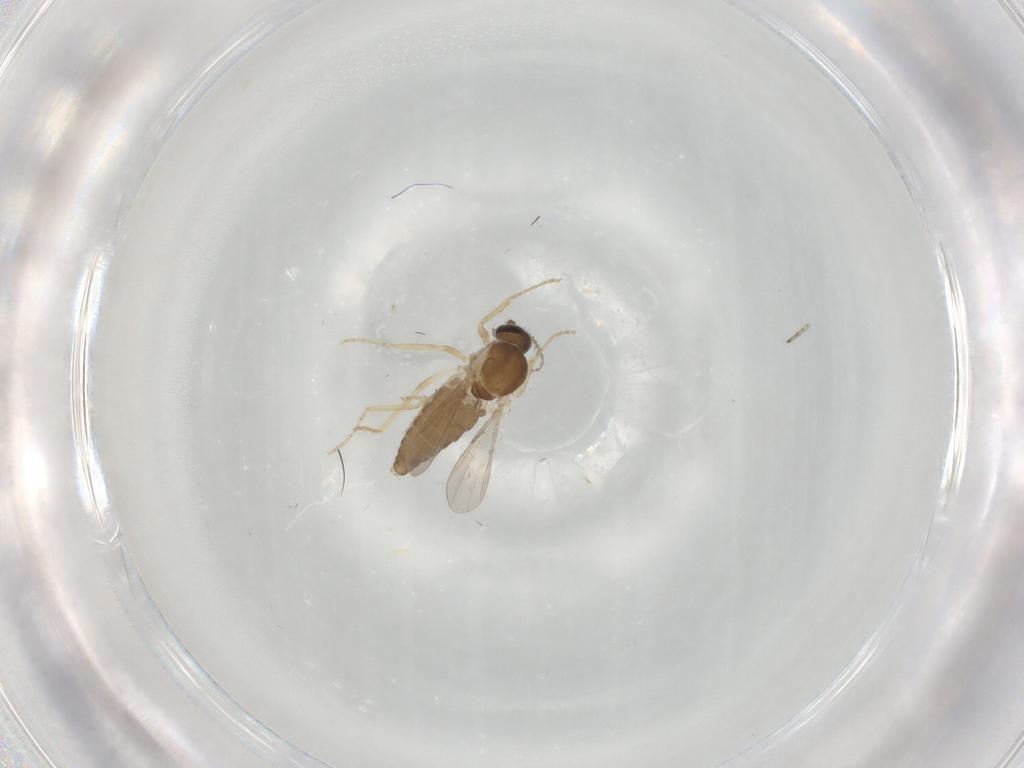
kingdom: Animalia
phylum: Arthropoda
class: Insecta
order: Diptera
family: Ceratopogonidae
